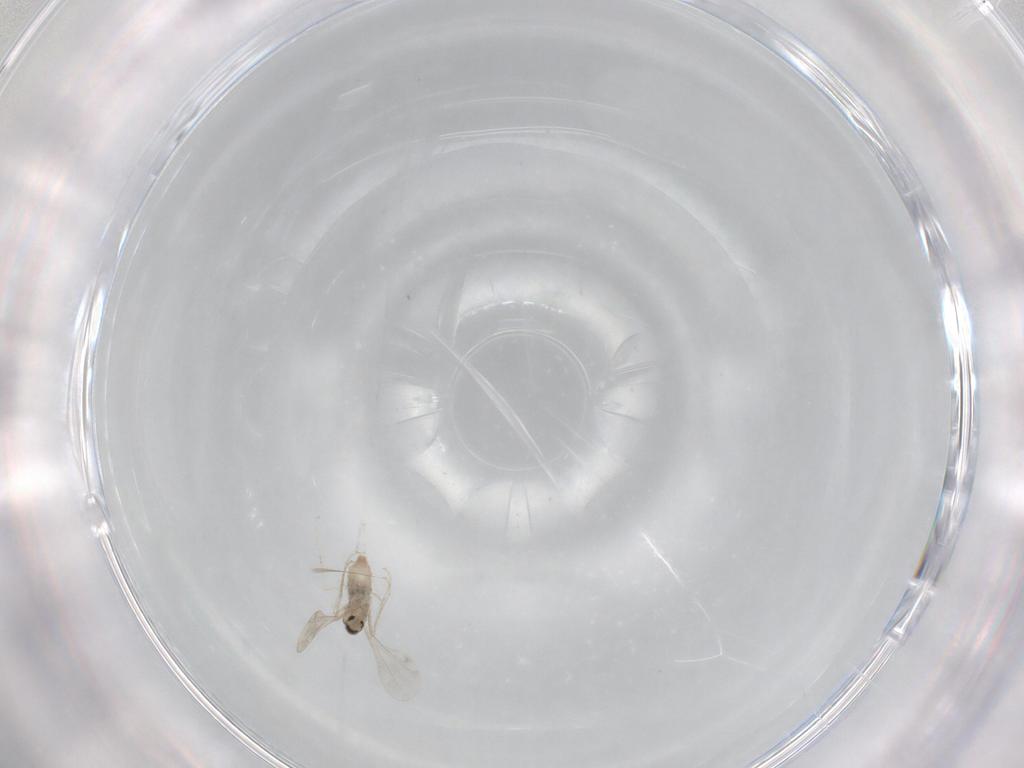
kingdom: Animalia
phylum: Arthropoda
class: Insecta
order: Diptera
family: Cecidomyiidae
